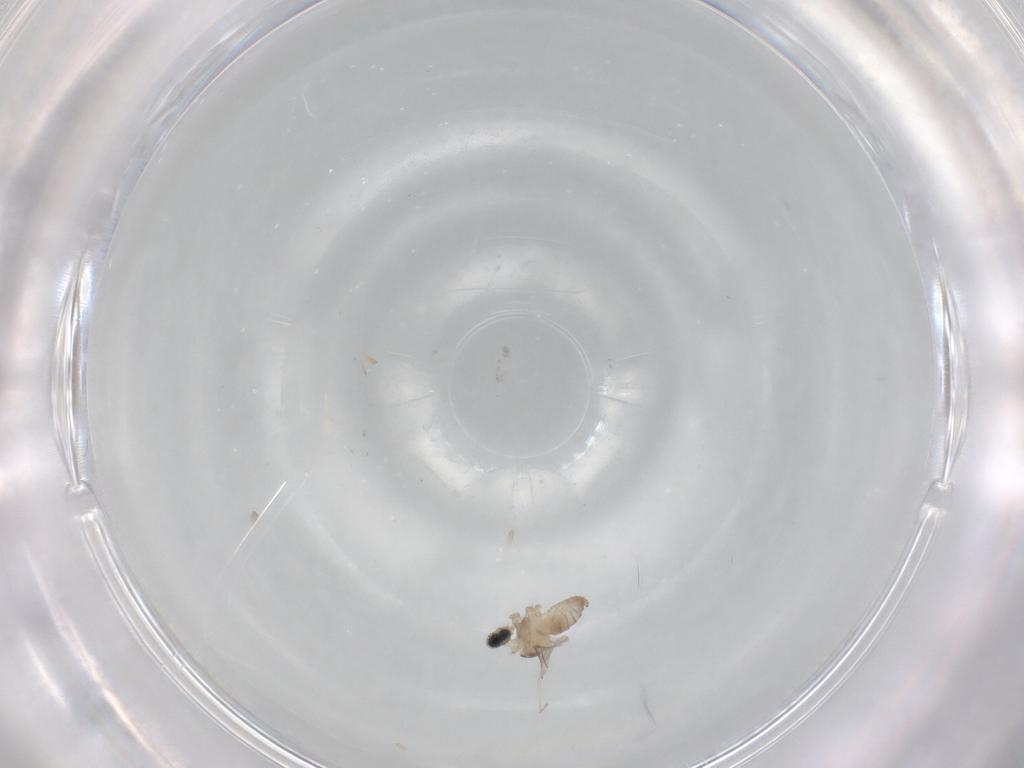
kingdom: Animalia
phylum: Arthropoda
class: Insecta
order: Diptera
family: Cecidomyiidae
